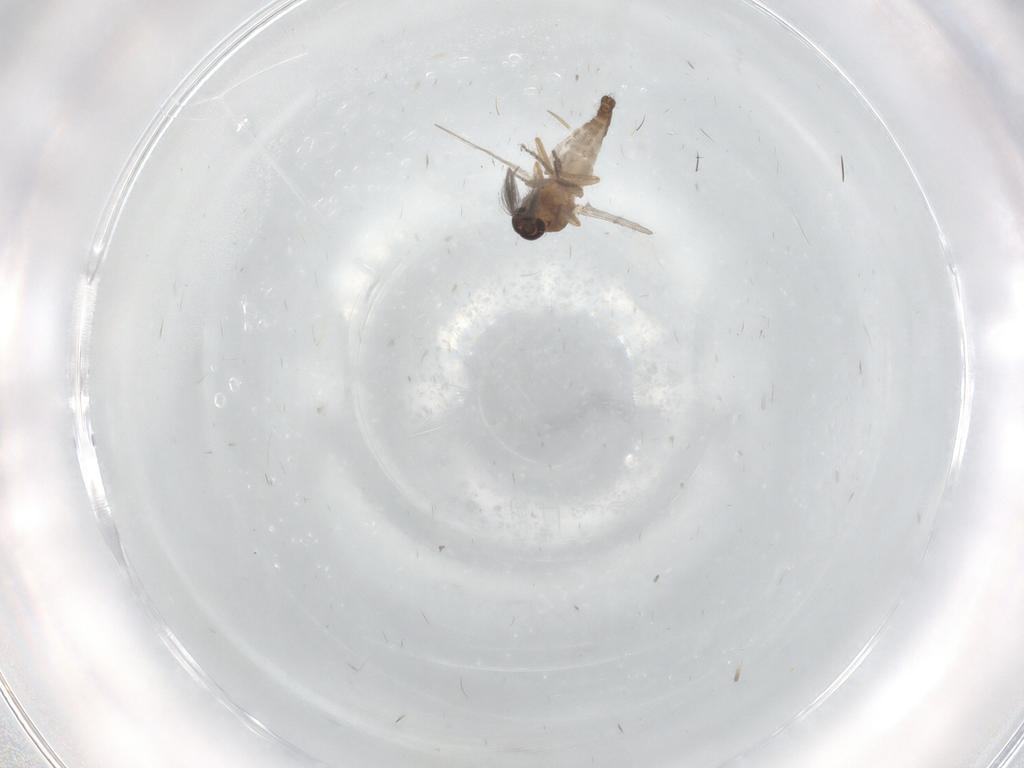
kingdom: Animalia
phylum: Arthropoda
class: Insecta
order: Diptera
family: Ceratopogonidae
